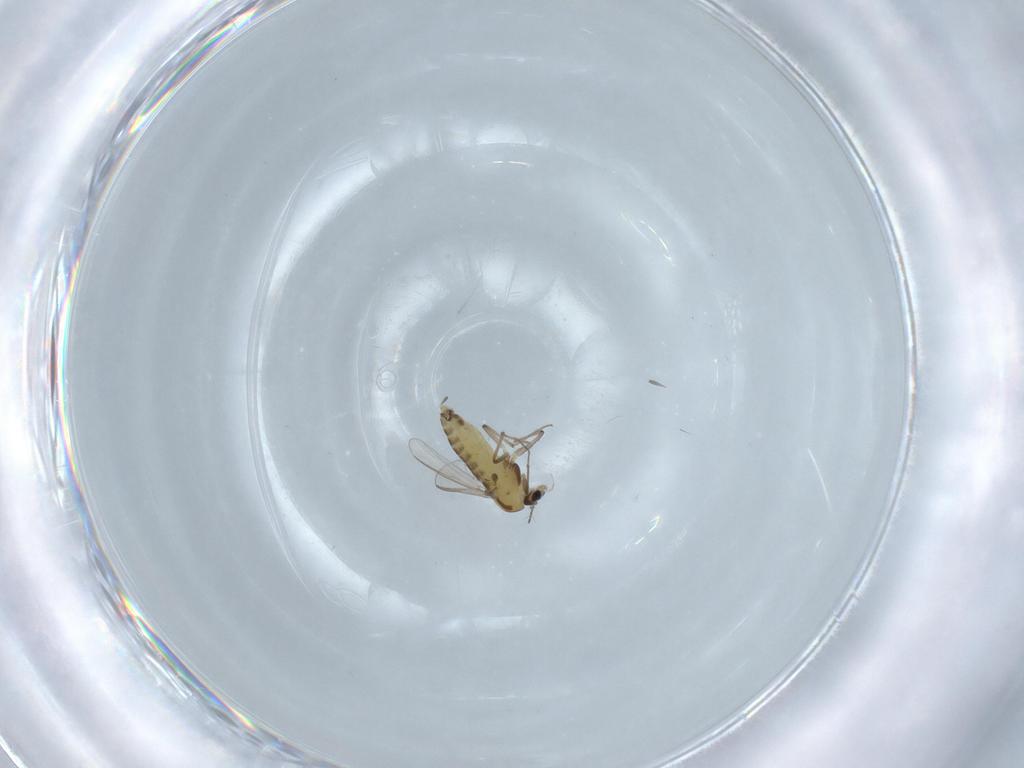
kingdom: Animalia
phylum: Arthropoda
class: Insecta
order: Diptera
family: Chironomidae
